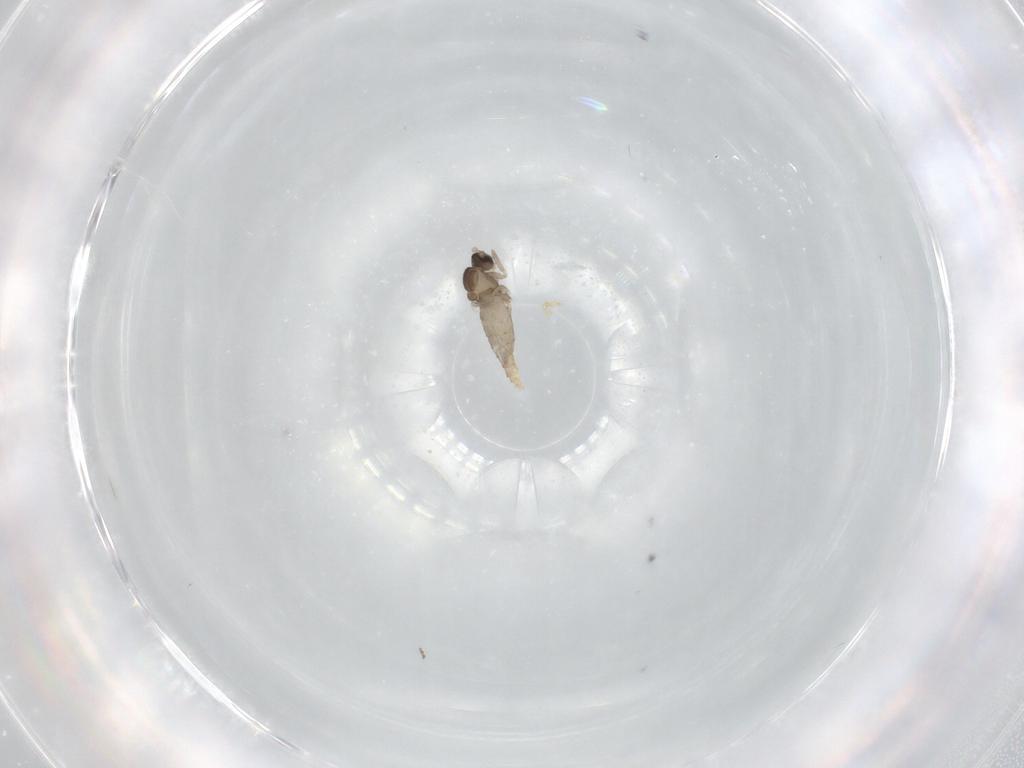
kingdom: Animalia
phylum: Arthropoda
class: Insecta
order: Diptera
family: Cecidomyiidae
